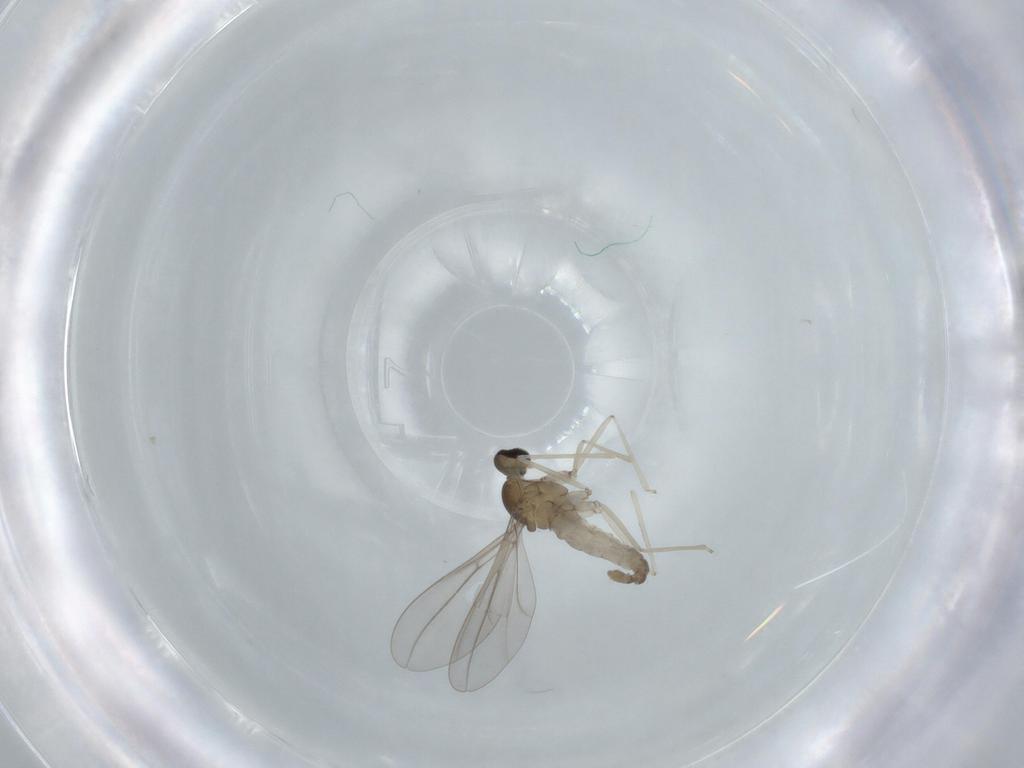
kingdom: Animalia
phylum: Arthropoda
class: Insecta
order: Diptera
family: Cecidomyiidae
